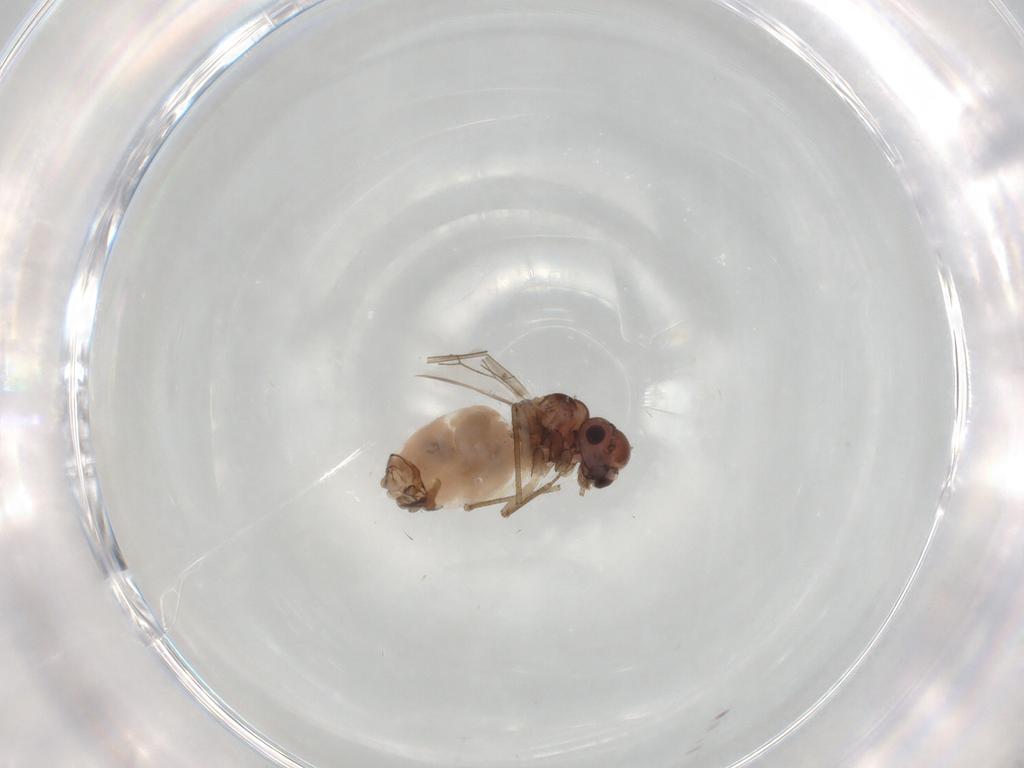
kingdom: Animalia
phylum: Arthropoda
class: Insecta
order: Psocodea
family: Peripsocidae
